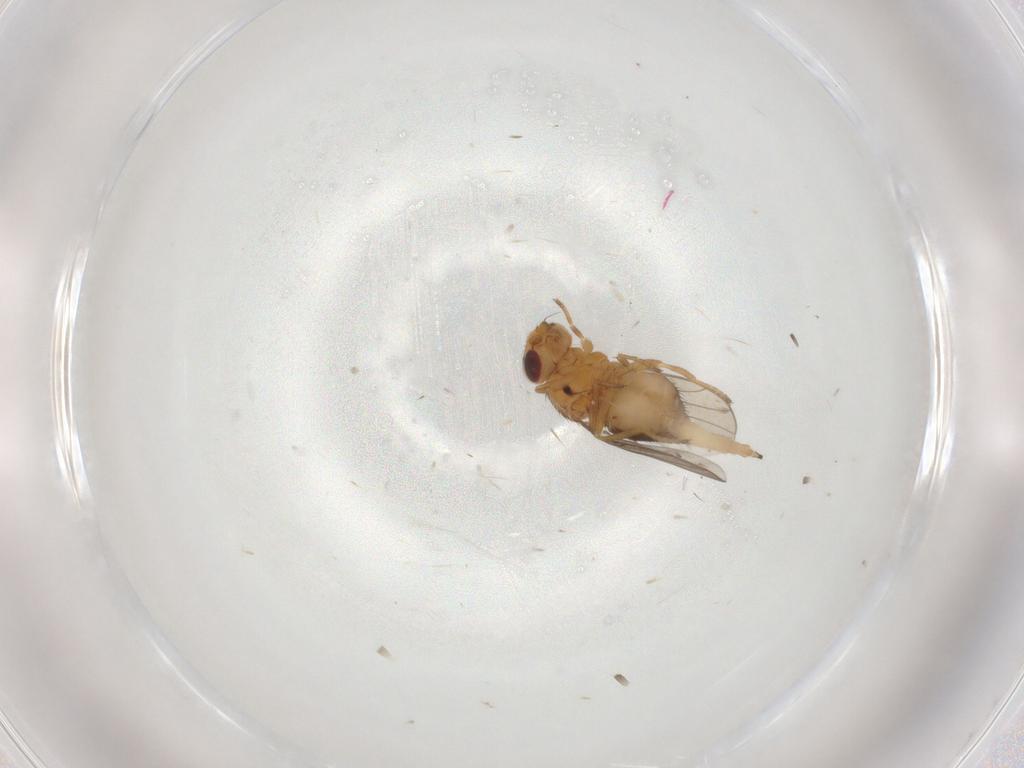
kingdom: Animalia
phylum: Arthropoda
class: Insecta
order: Diptera
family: Chloropidae
